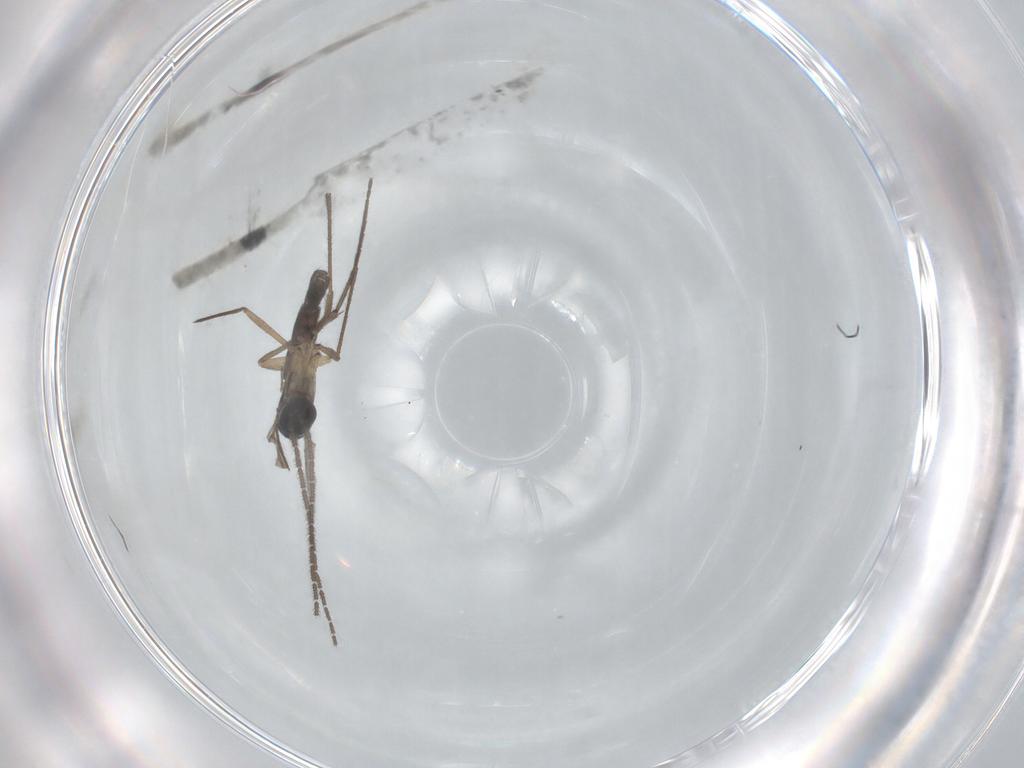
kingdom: Animalia
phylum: Arthropoda
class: Insecta
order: Diptera
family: Sciaridae
